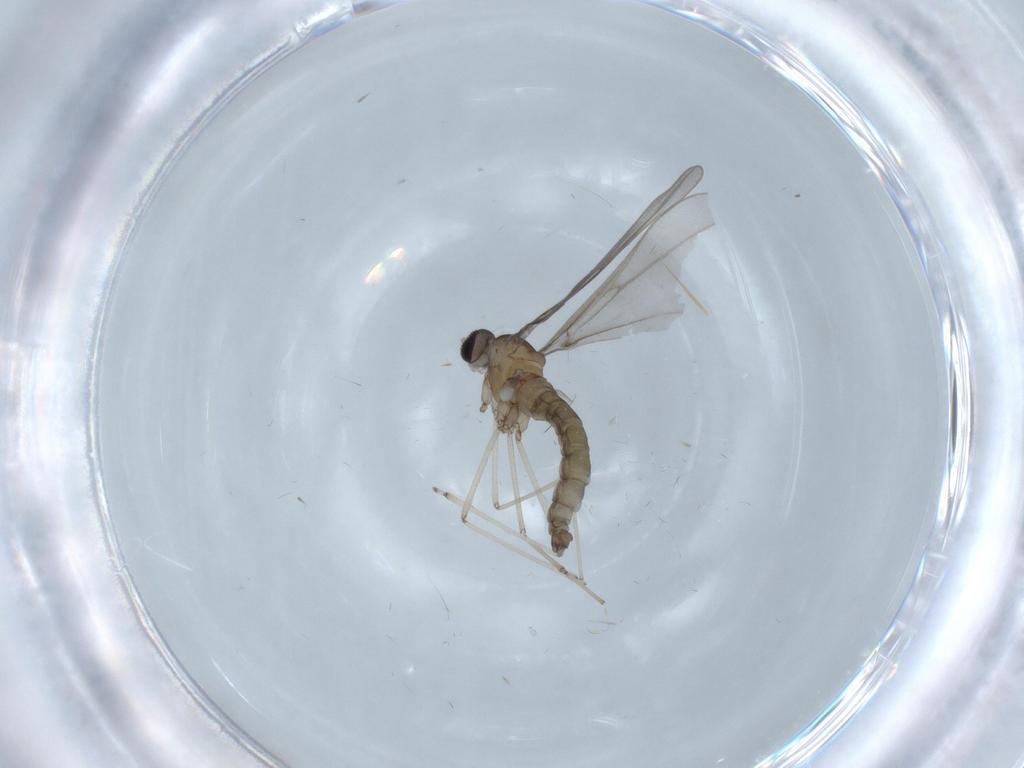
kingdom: Animalia
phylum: Arthropoda
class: Insecta
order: Diptera
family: Cecidomyiidae
